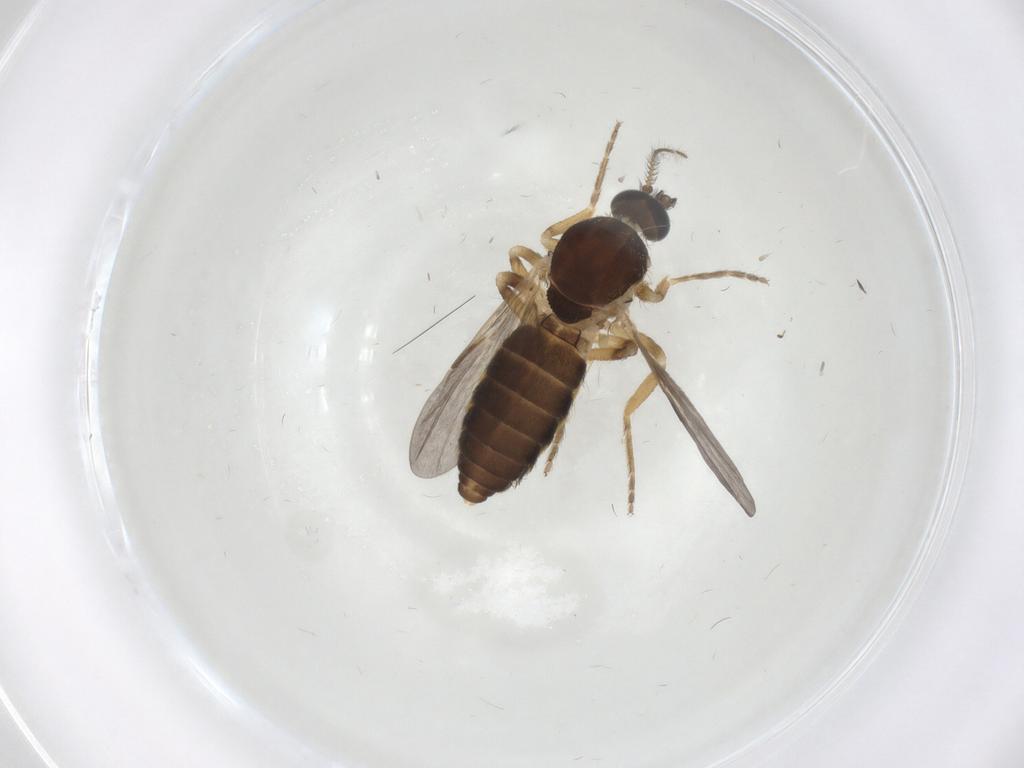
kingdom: Animalia
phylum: Arthropoda
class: Insecta
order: Diptera
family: Ceratopogonidae
